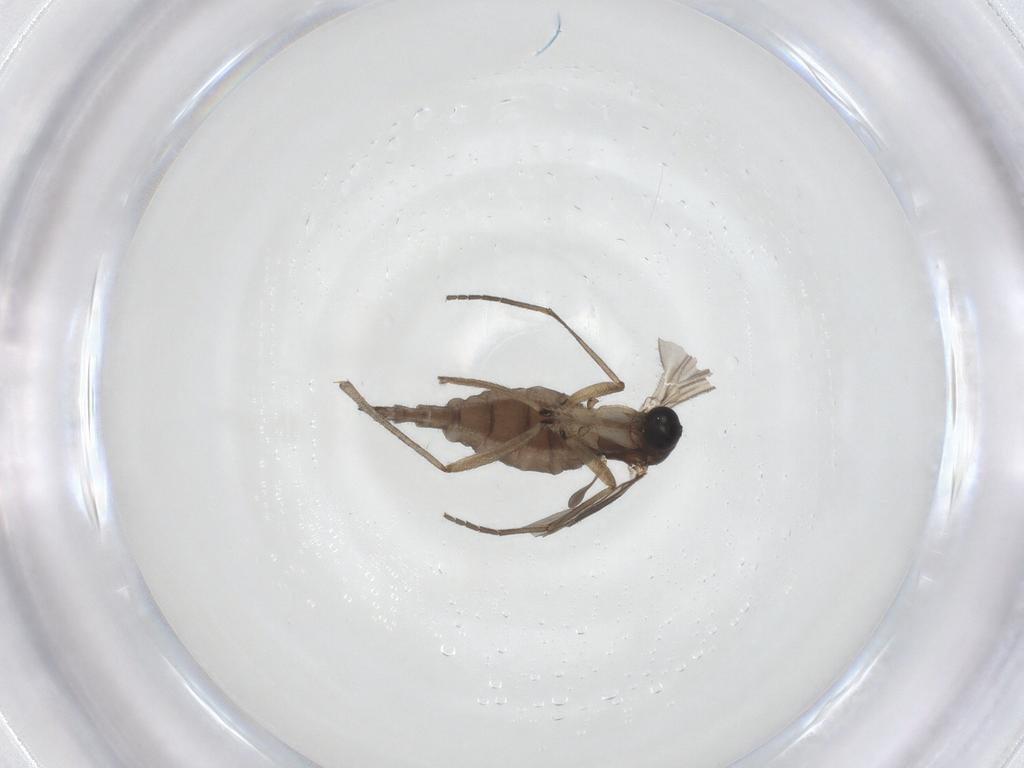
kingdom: Animalia
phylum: Arthropoda
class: Insecta
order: Diptera
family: Sciaridae
